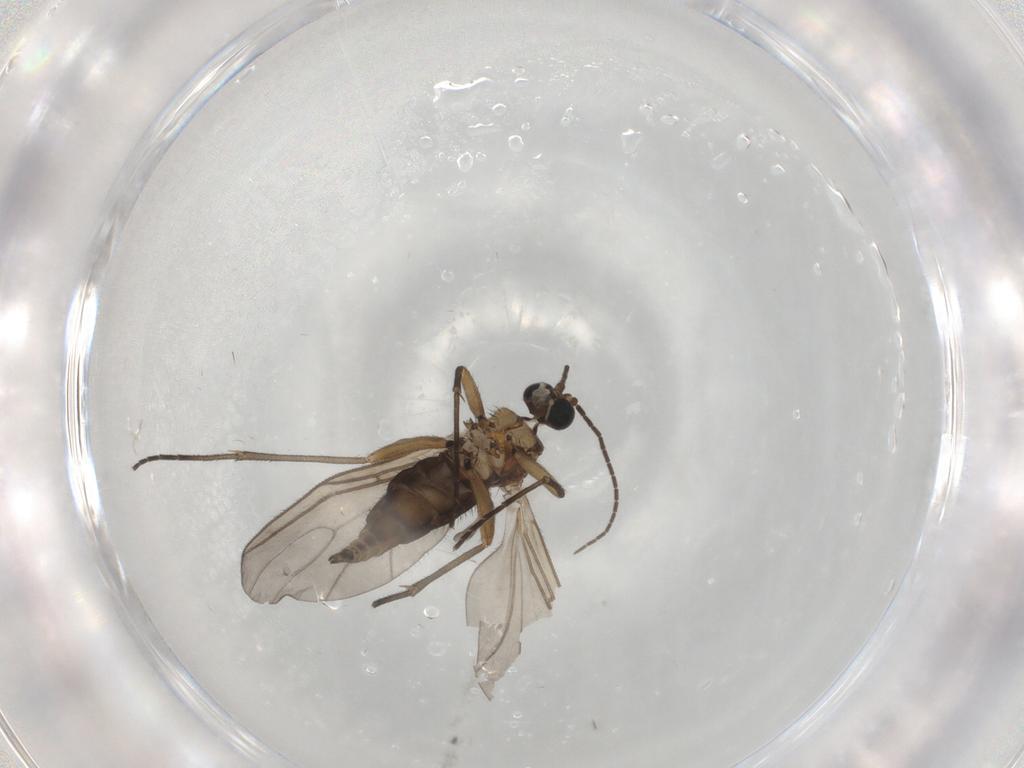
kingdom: Animalia
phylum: Arthropoda
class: Insecta
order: Diptera
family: Sciaridae
